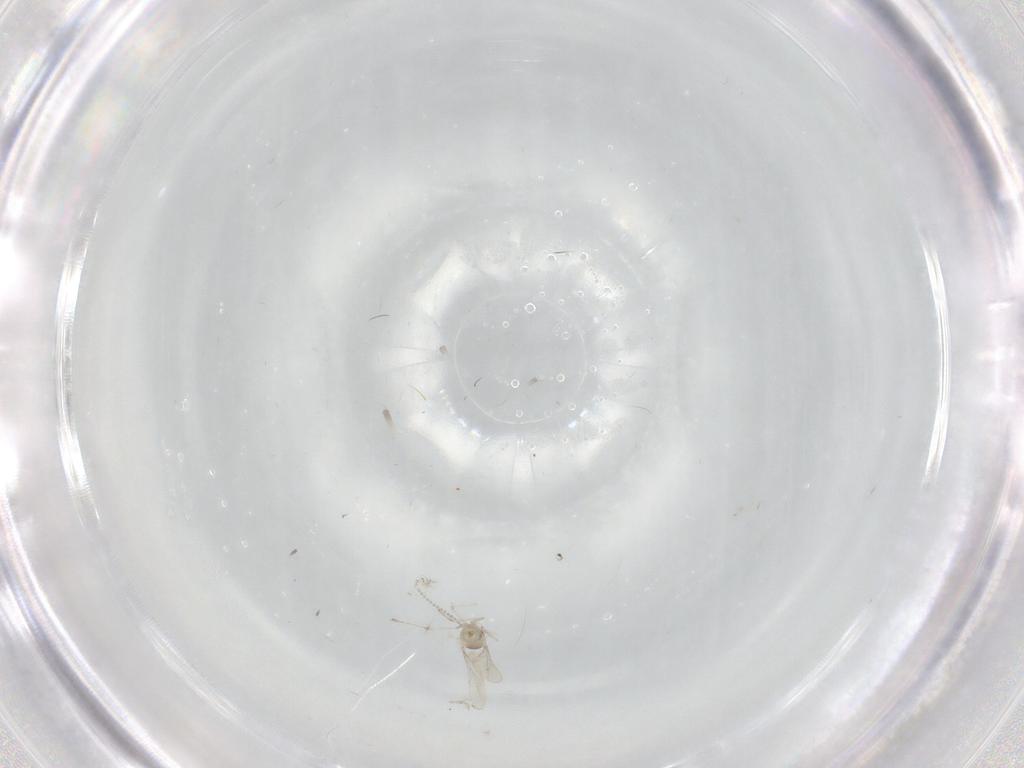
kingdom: Animalia
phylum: Arthropoda
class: Insecta
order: Diptera
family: Cecidomyiidae
